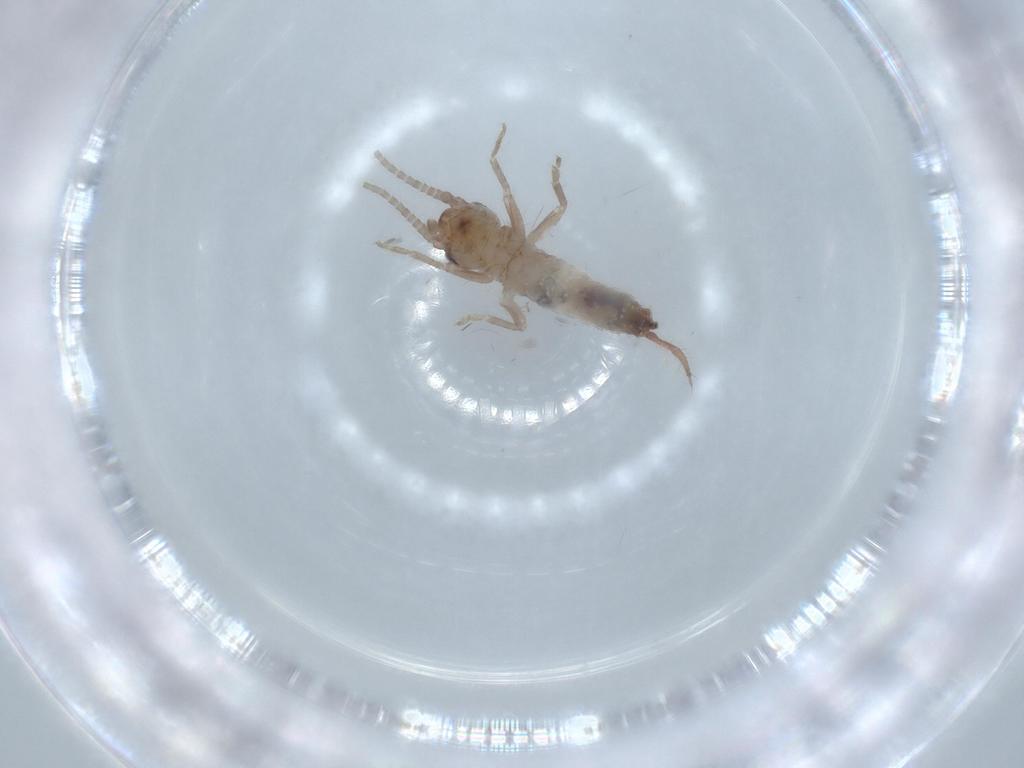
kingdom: Animalia
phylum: Arthropoda
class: Insecta
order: Orthoptera
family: Mogoplistidae
